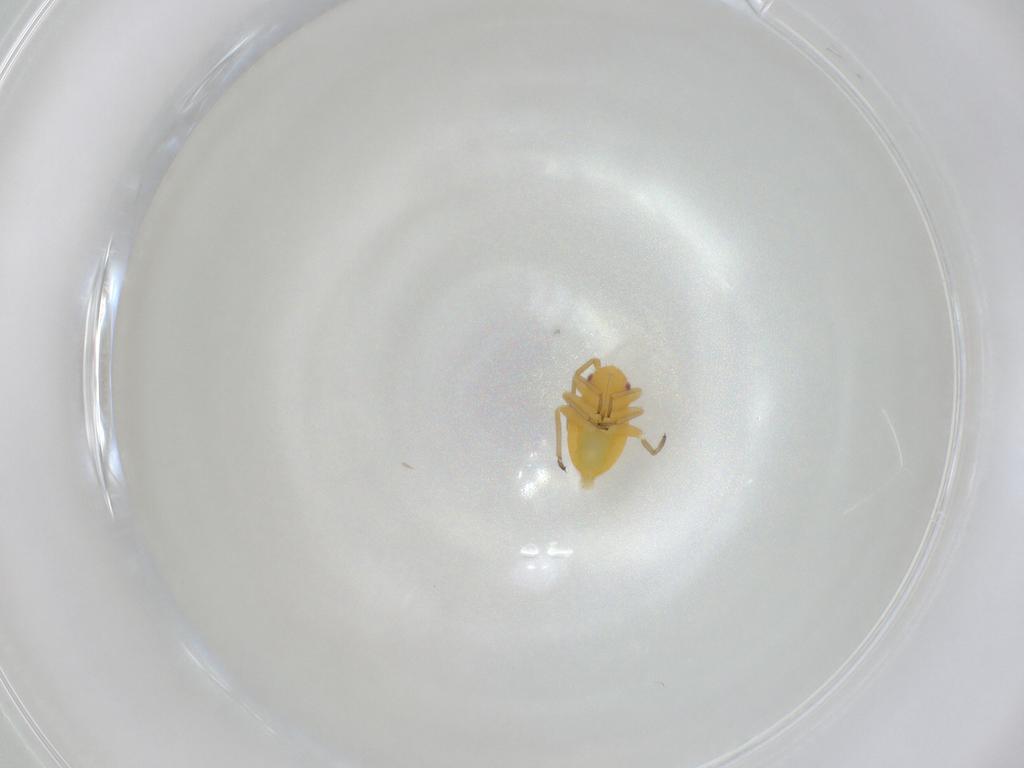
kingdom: Animalia
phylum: Arthropoda
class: Insecta
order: Hemiptera
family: Miridae
